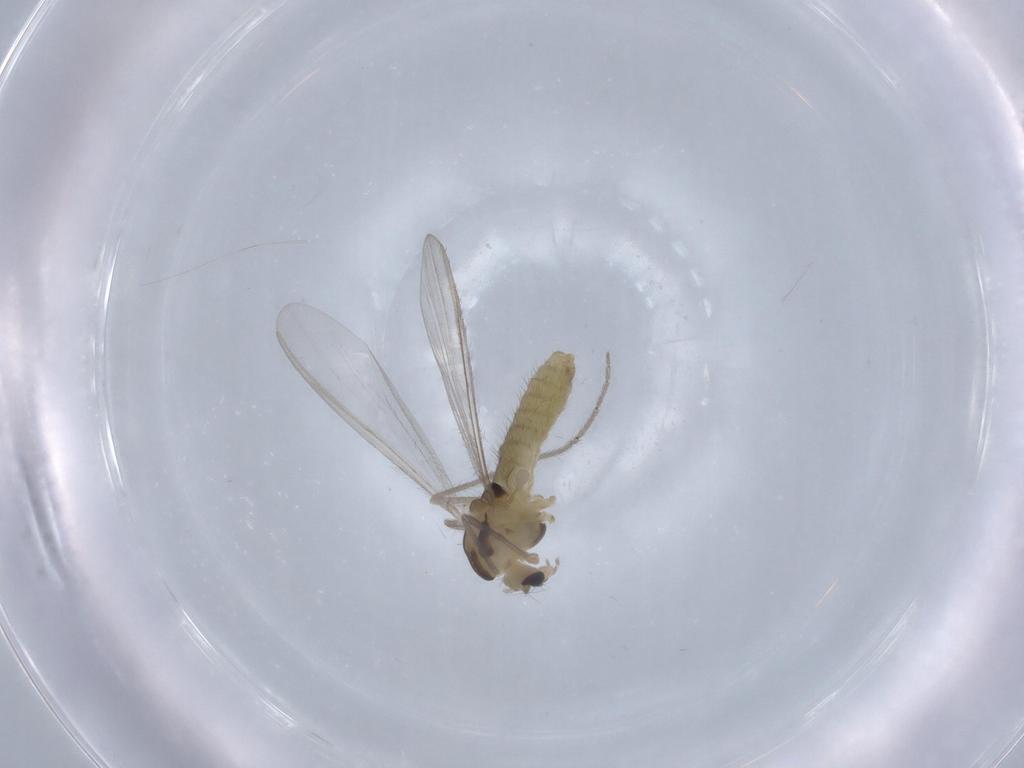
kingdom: Animalia
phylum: Arthropoda
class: Insecta
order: Diptera
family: Chironomidae
